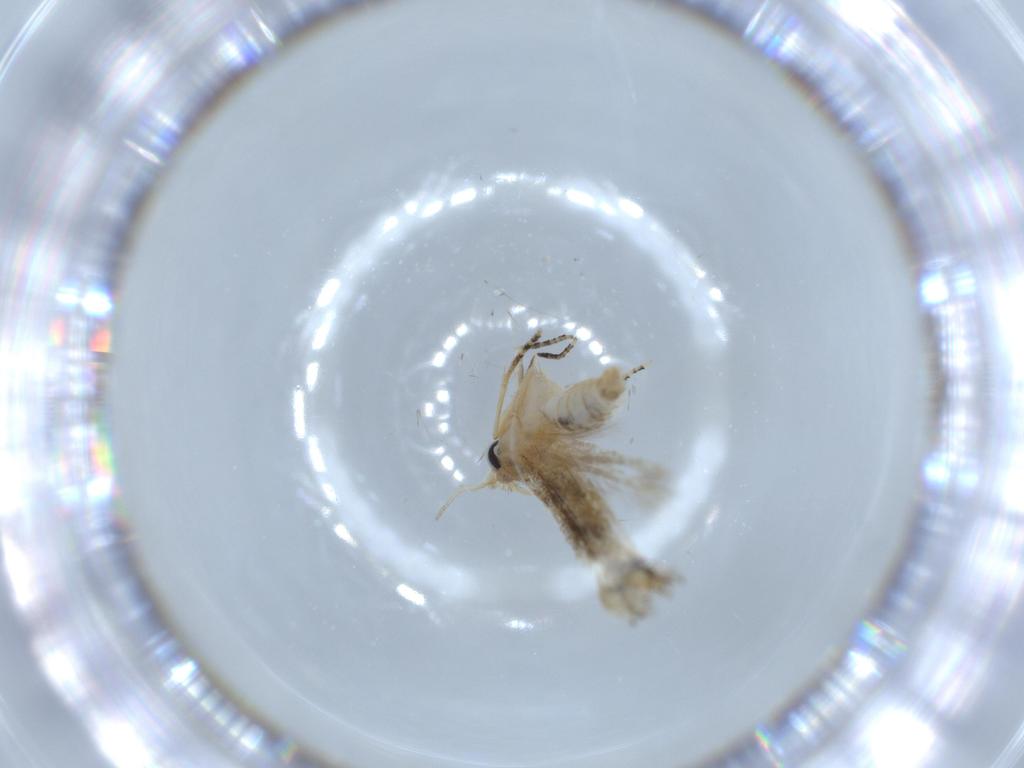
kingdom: Animalia
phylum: Arthropoda
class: Insecta
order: Lepidoptera
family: Bucculatricidae
